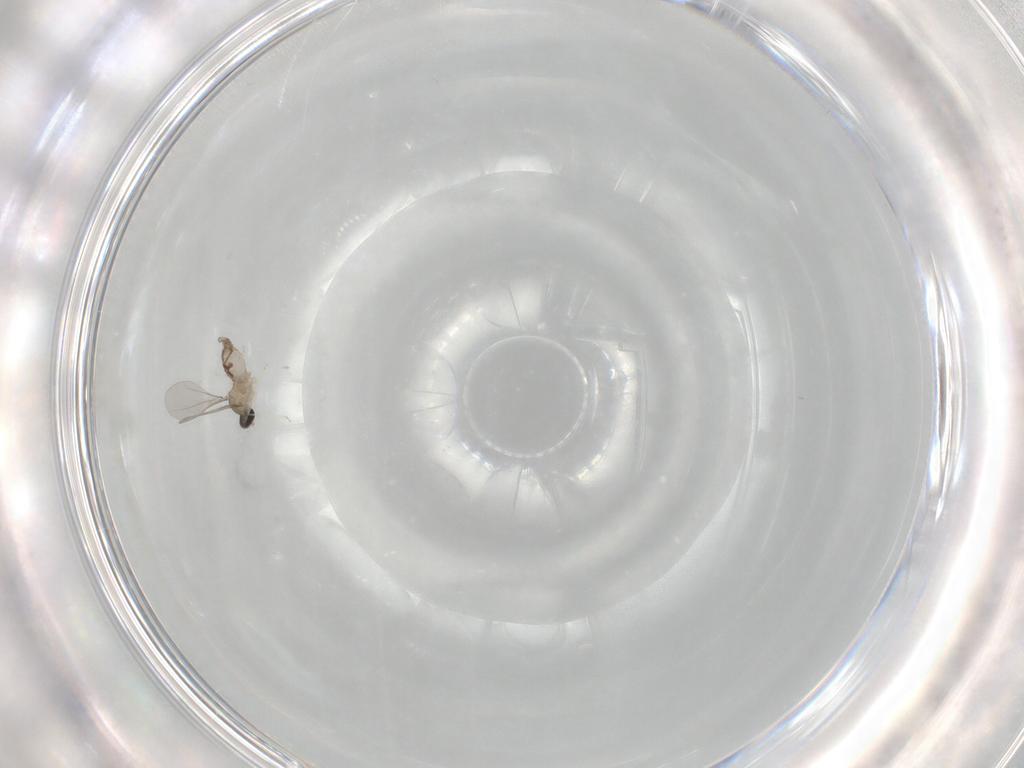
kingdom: Animalia
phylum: Arthropoda
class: Insecta
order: Diptera
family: Cecidomyiidae
